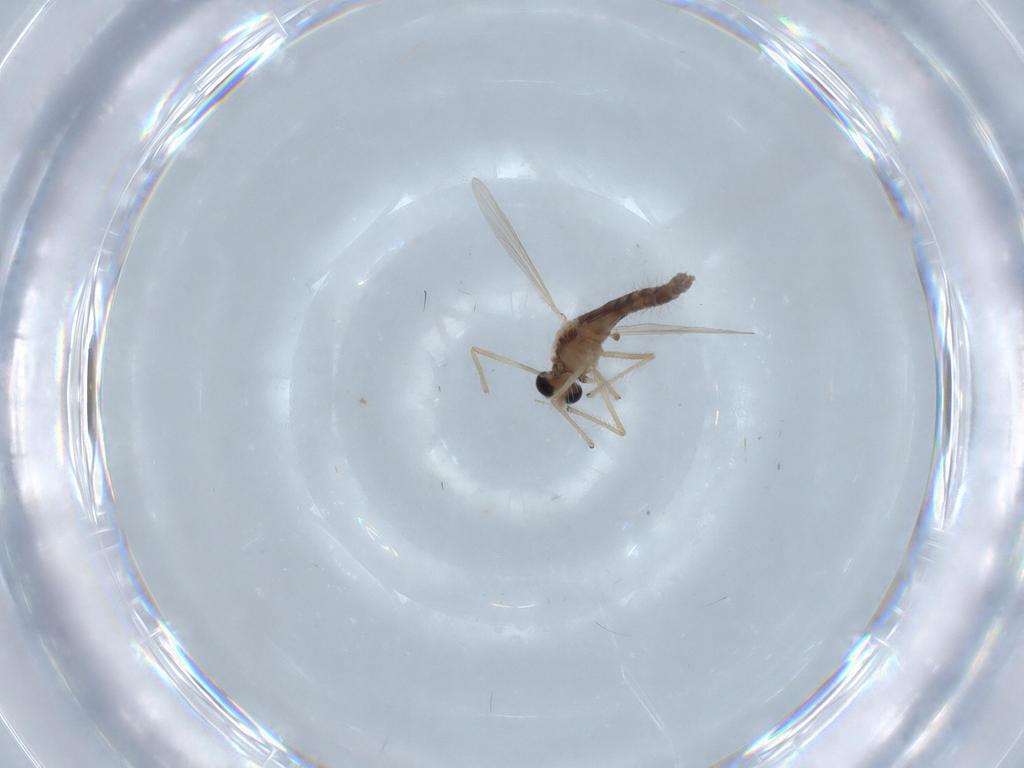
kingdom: Animalia
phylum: Arthropoda
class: Insecta
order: Diptera
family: Chironomidae
